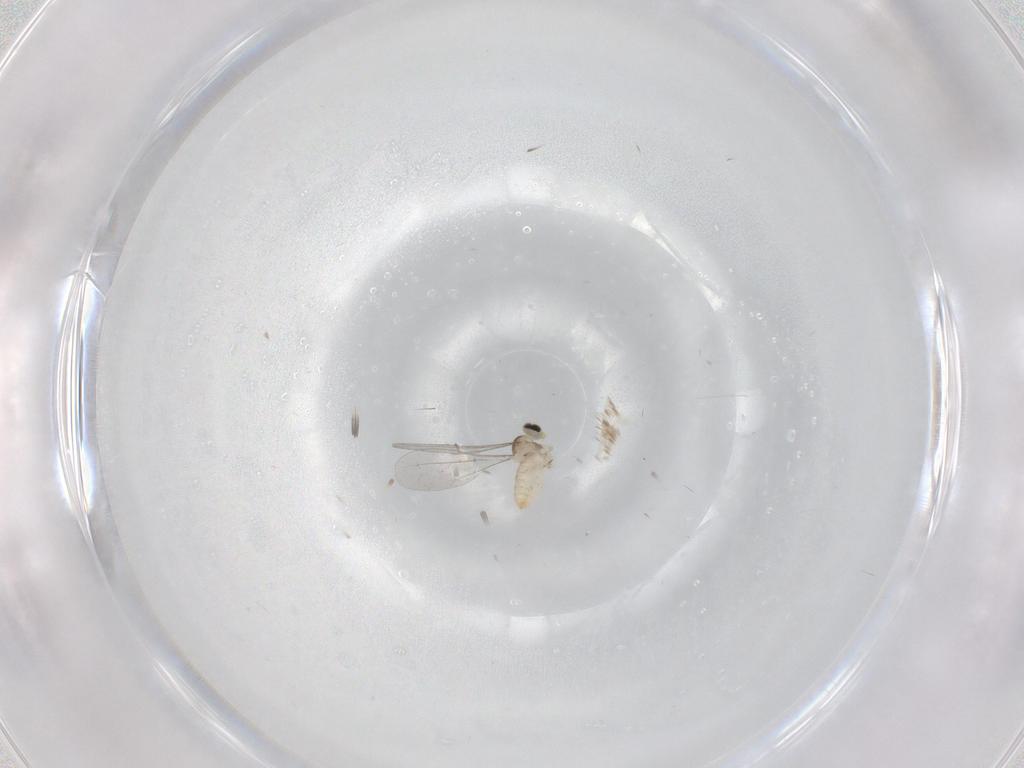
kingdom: Animalia
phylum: Arthropoda
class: Insecta
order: Diptera
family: Cecidomyiidae
